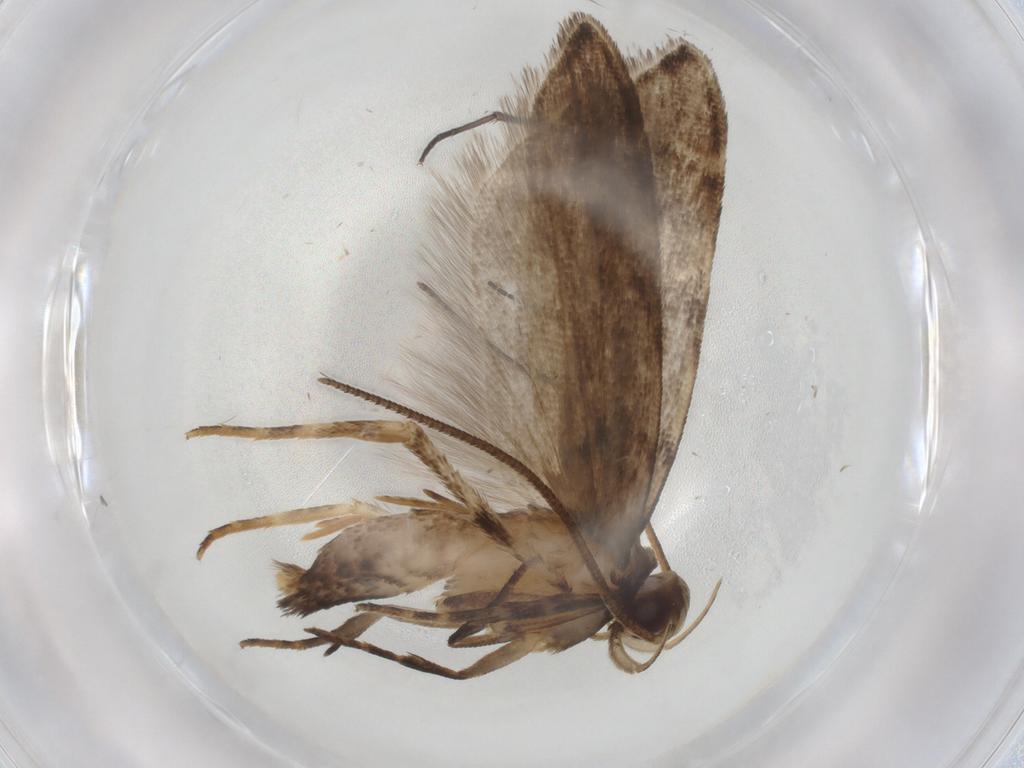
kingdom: Animalia
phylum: Arthropoda
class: Insecta
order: Lepidoptera
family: Gelechiidae
